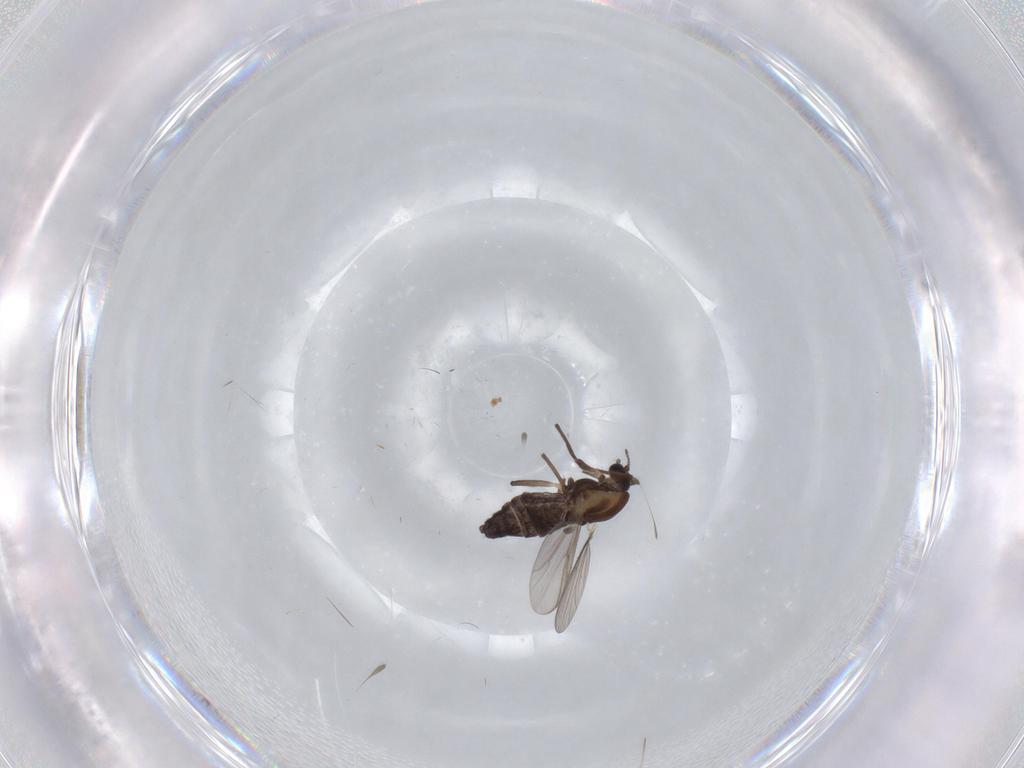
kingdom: Animalia
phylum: Arthropoda
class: Insecta
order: Diptera
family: Chironomidae
